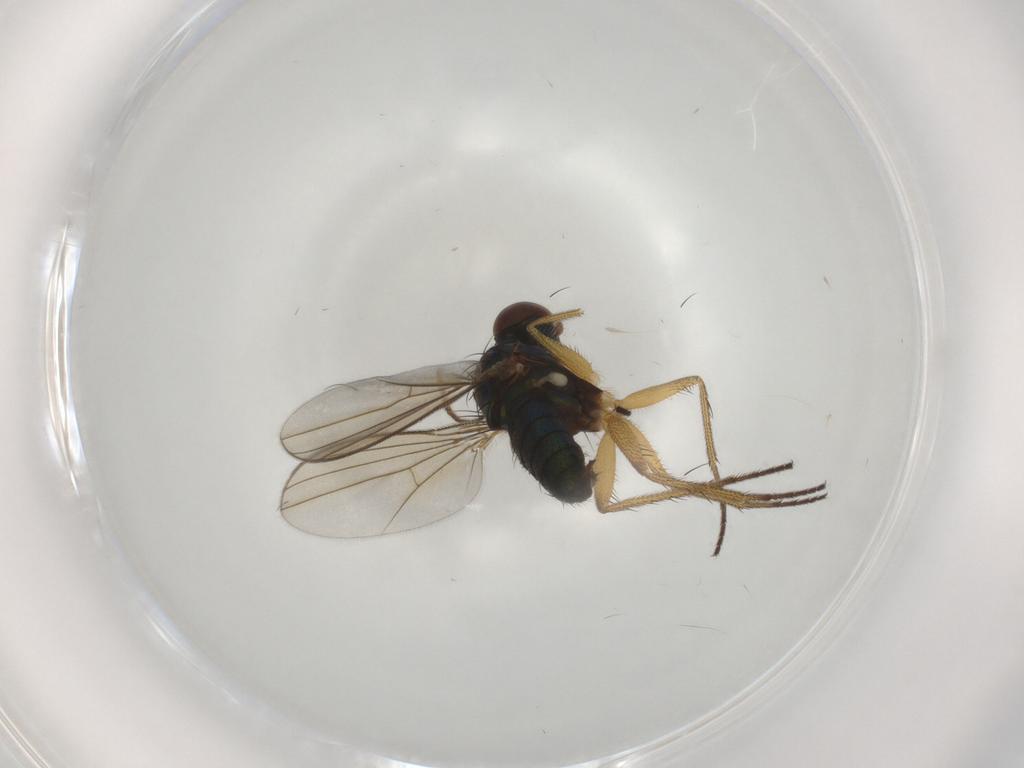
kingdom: Animalia
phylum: Arthropoda
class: Insecta
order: Diptera
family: Dolichopodidae
